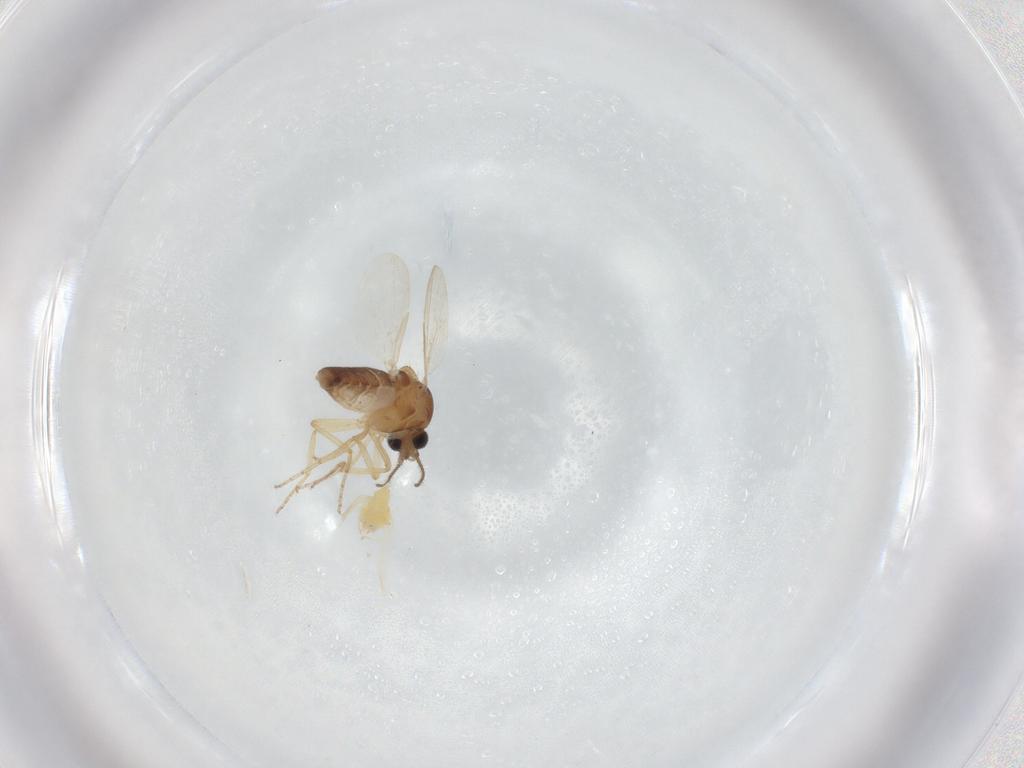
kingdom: Animalia
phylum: Arthropoda
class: Insecta
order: Diptera
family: Ceratopogonidae
